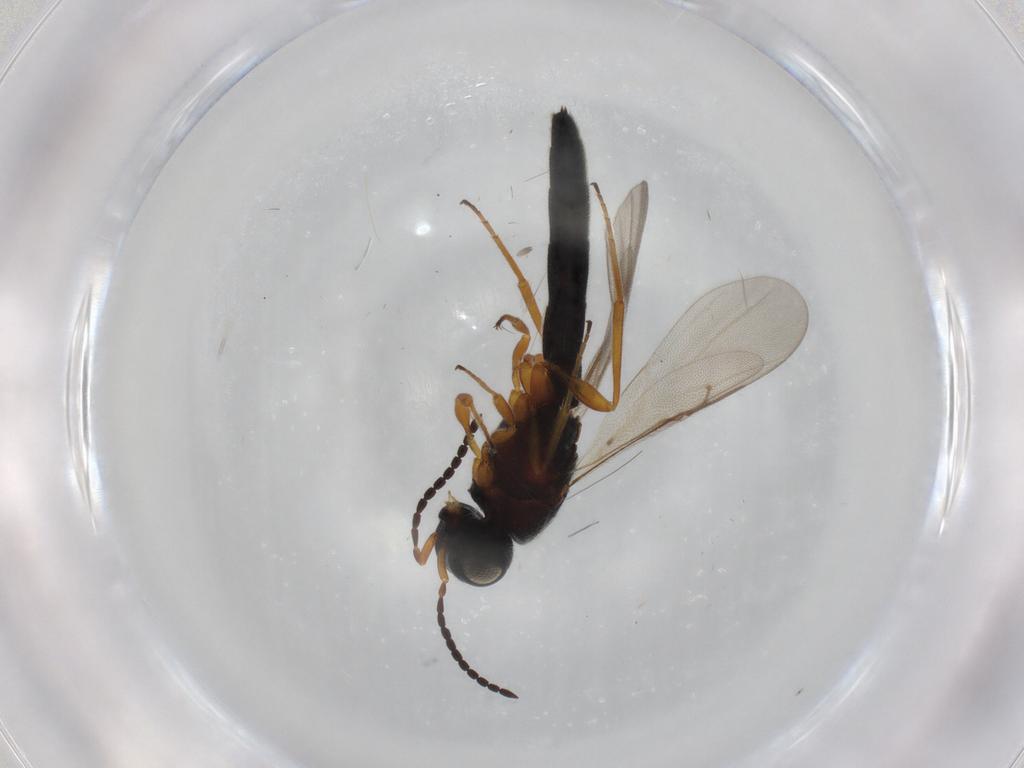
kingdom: Animalia
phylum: Arthropoda
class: Insecta
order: Hymenoptera
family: Scelionidae
